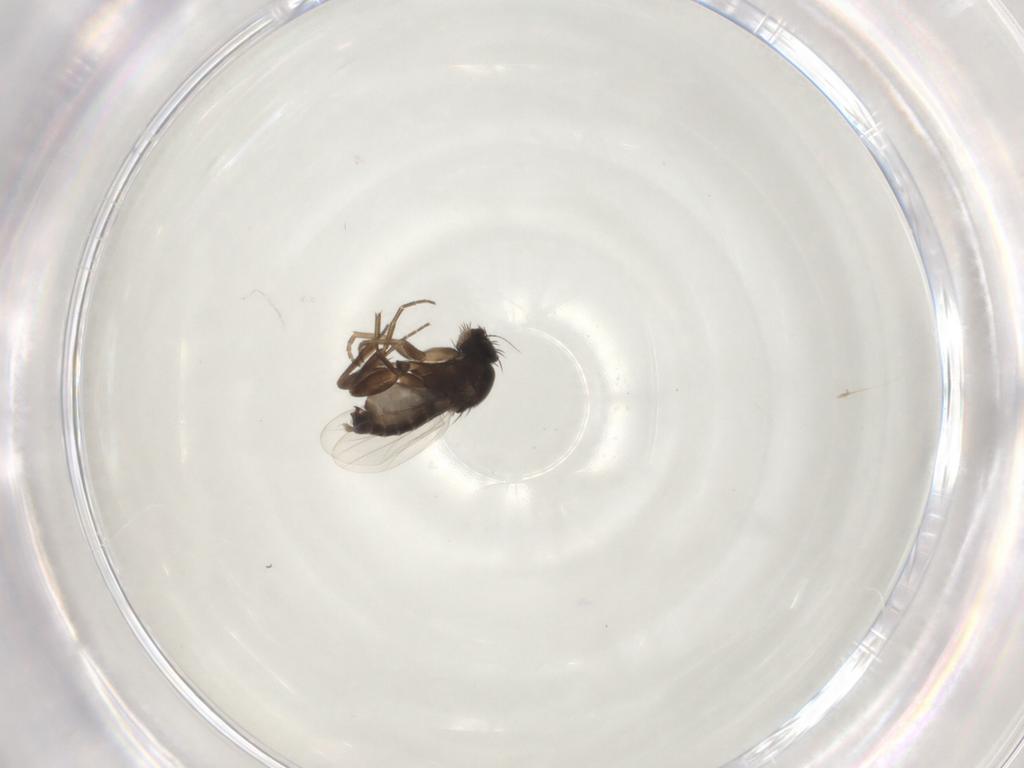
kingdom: Animalia
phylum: Arthropoda
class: Insecta
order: Diptera
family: Phoridae
